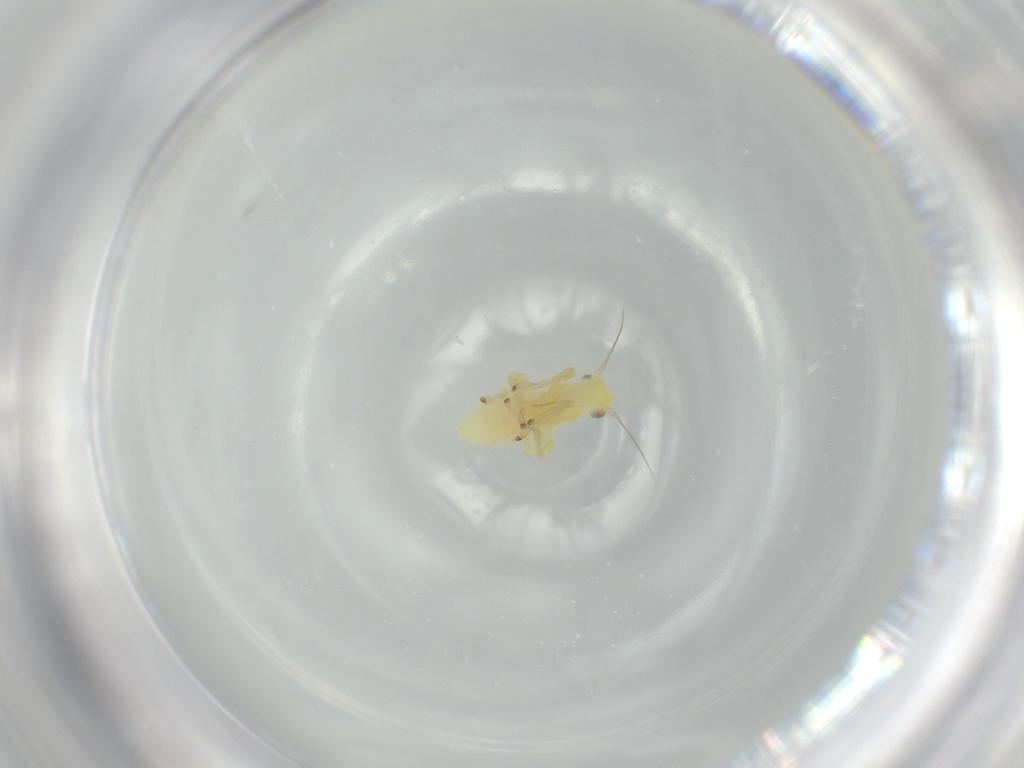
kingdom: Animalia
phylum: Arthropoda
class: Insecta
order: Hemiptera
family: Cicadellidae
